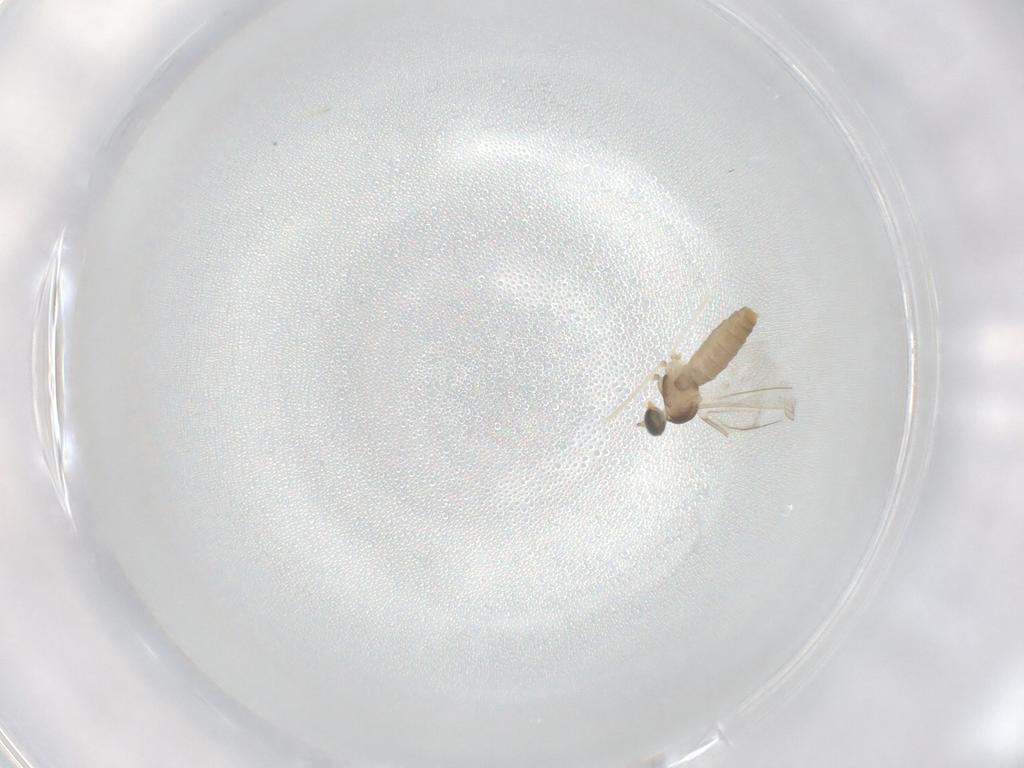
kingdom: Animalia
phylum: Arthropoda
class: Insecta
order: Diptera
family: Cecidomyiidae
